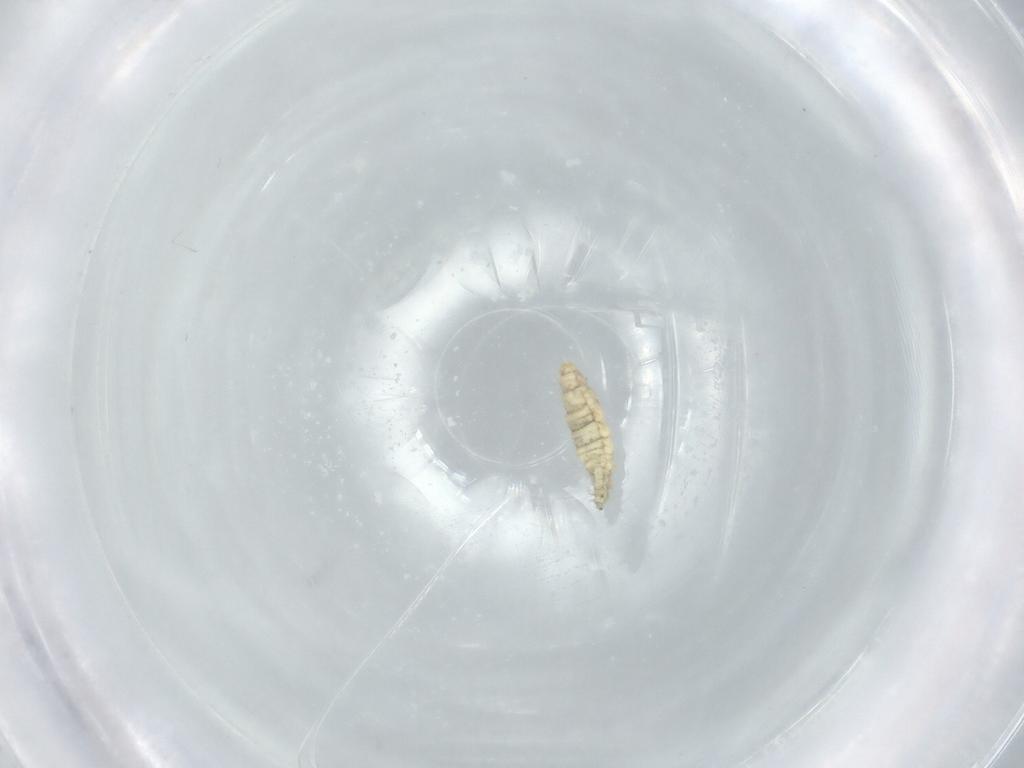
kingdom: Animalia
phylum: Arthropoda
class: Insecta
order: Diptera
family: Cecidomyiidae
